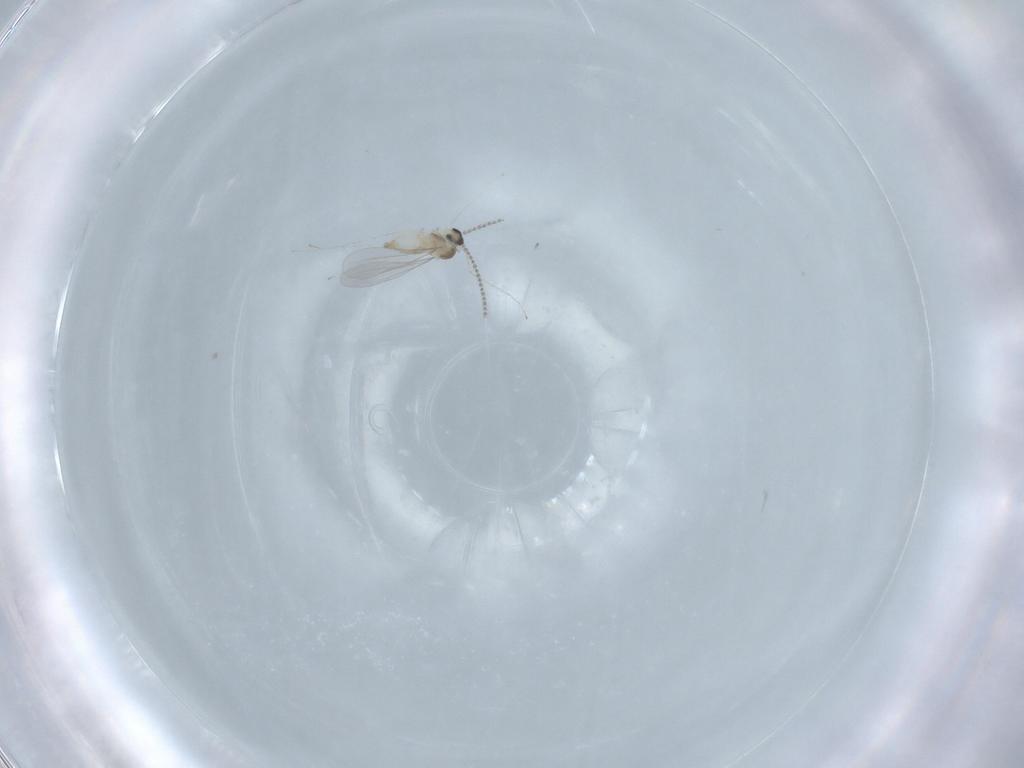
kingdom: Animalia
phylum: Arthropoda
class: Insecta
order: Diptera
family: Cecidomyiidae
